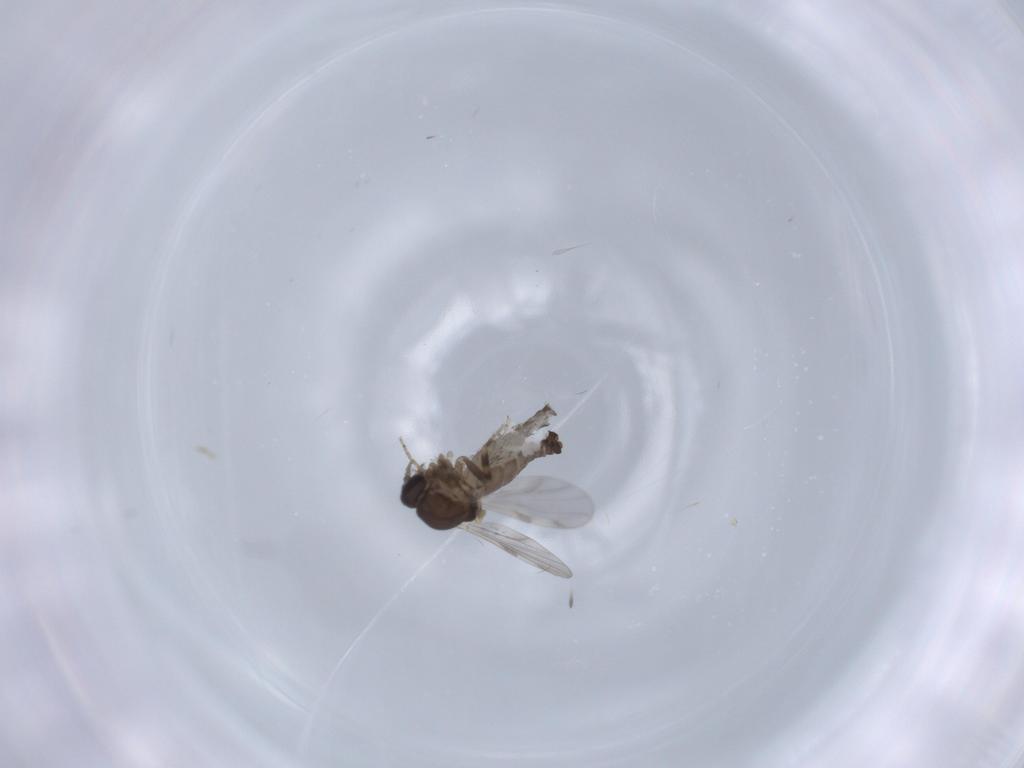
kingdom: Animalia
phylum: Arthropoda
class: Insecta
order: Diptera
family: Ceratopogonidae
